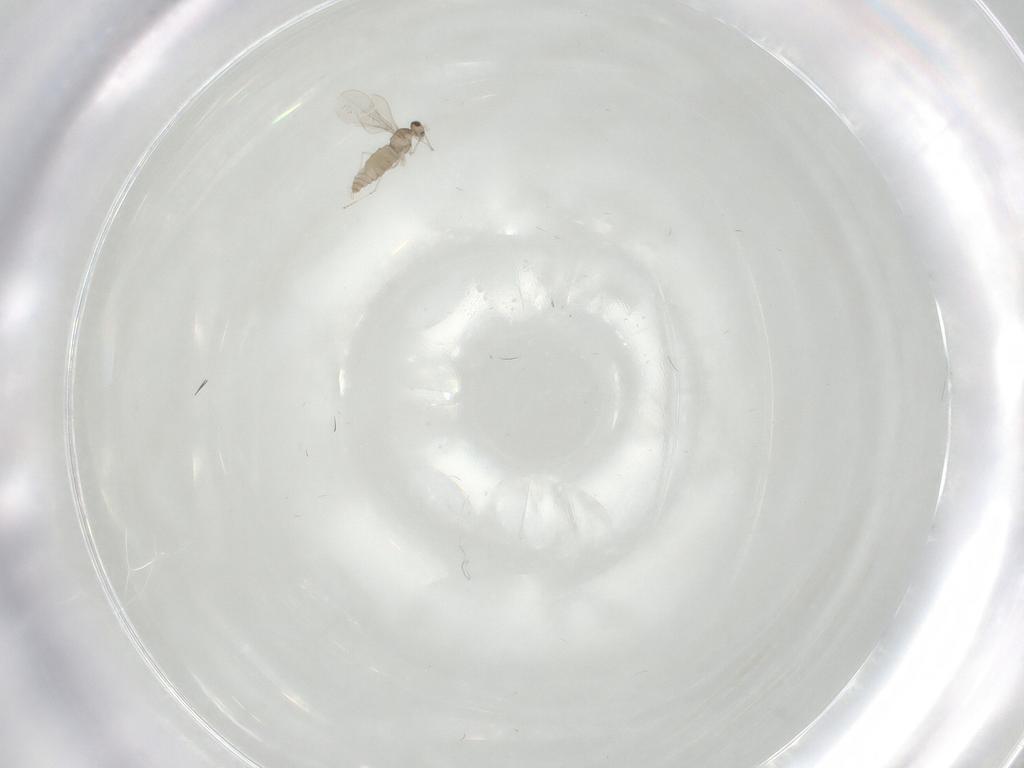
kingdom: Animalia
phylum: Arthropoda
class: Insecta
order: Diptera
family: Cecidomyiidae
